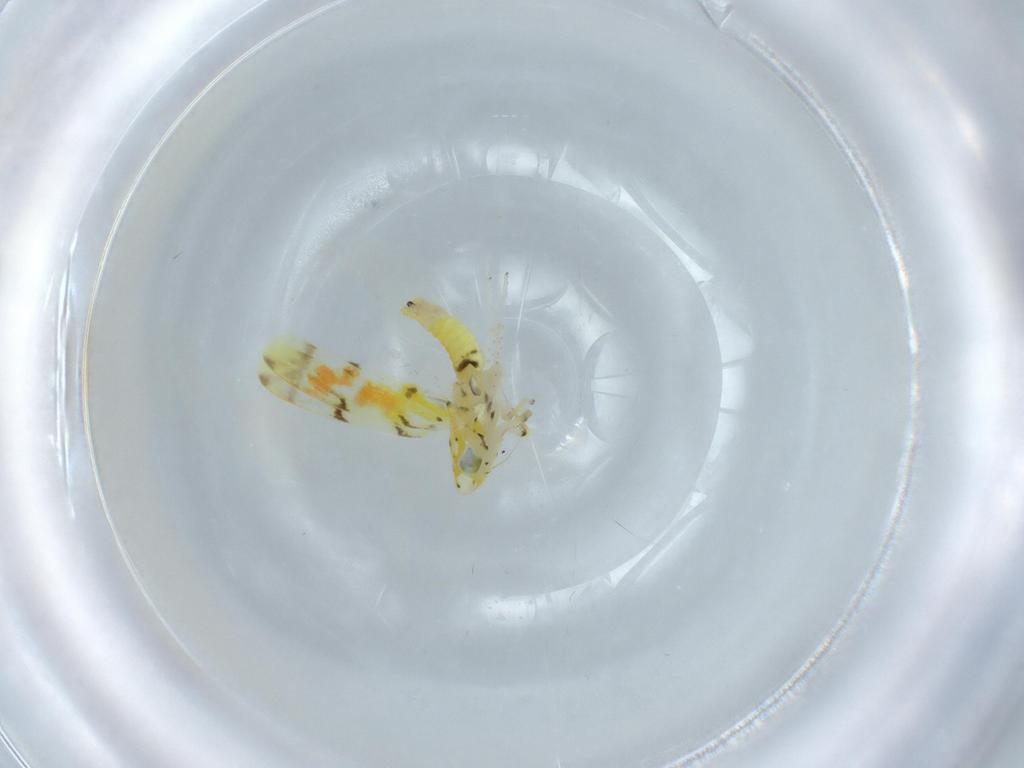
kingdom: Animalia
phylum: Arthropoda
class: Insecta
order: Hemiptera
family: Cicadellidae
